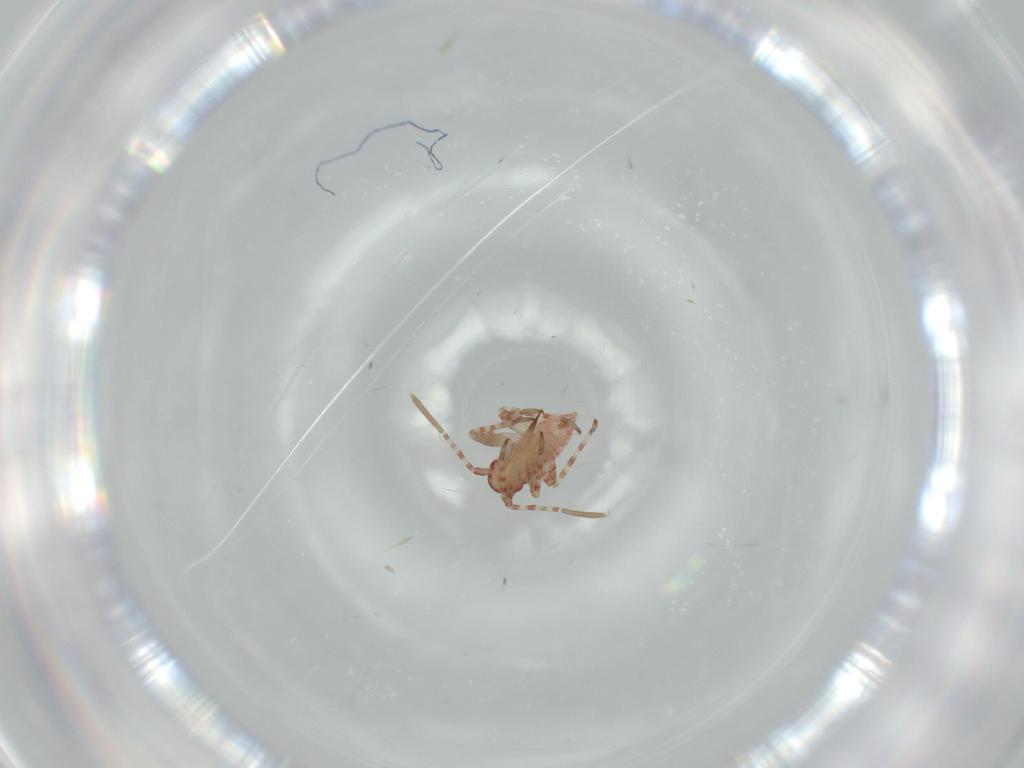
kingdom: Animalia
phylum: Arthropoda
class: Insecta
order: Hemiptera
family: Miridae
